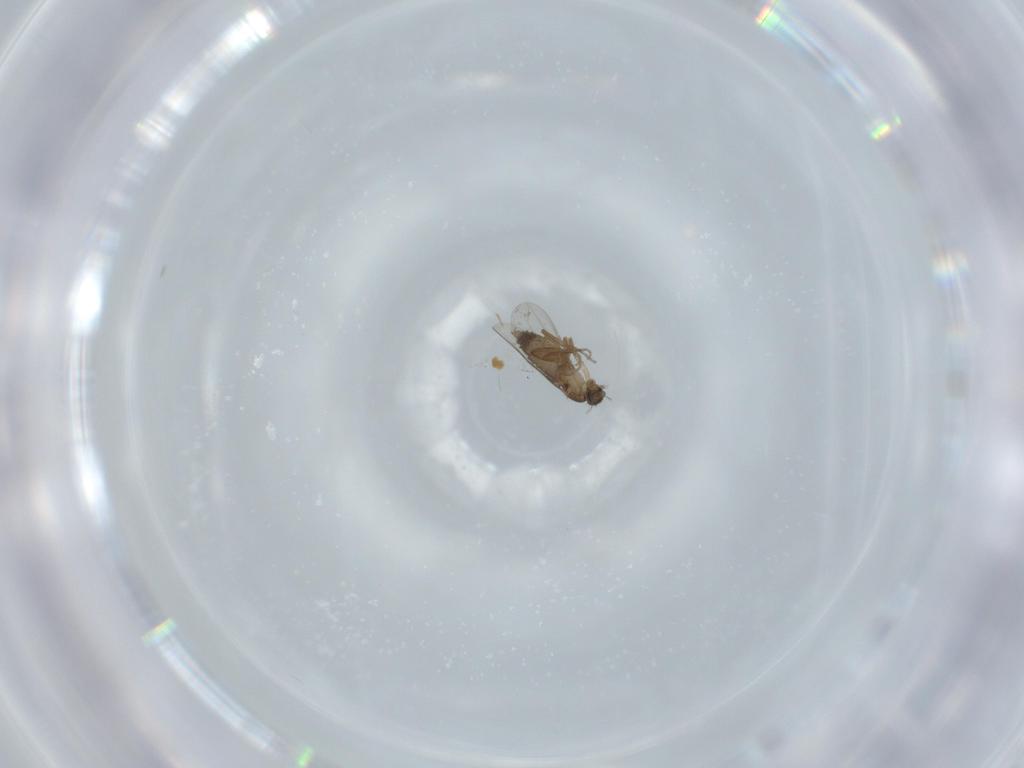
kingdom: Animalia
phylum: Arthropoda
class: Insecta
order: Diptera
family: Phoridae
